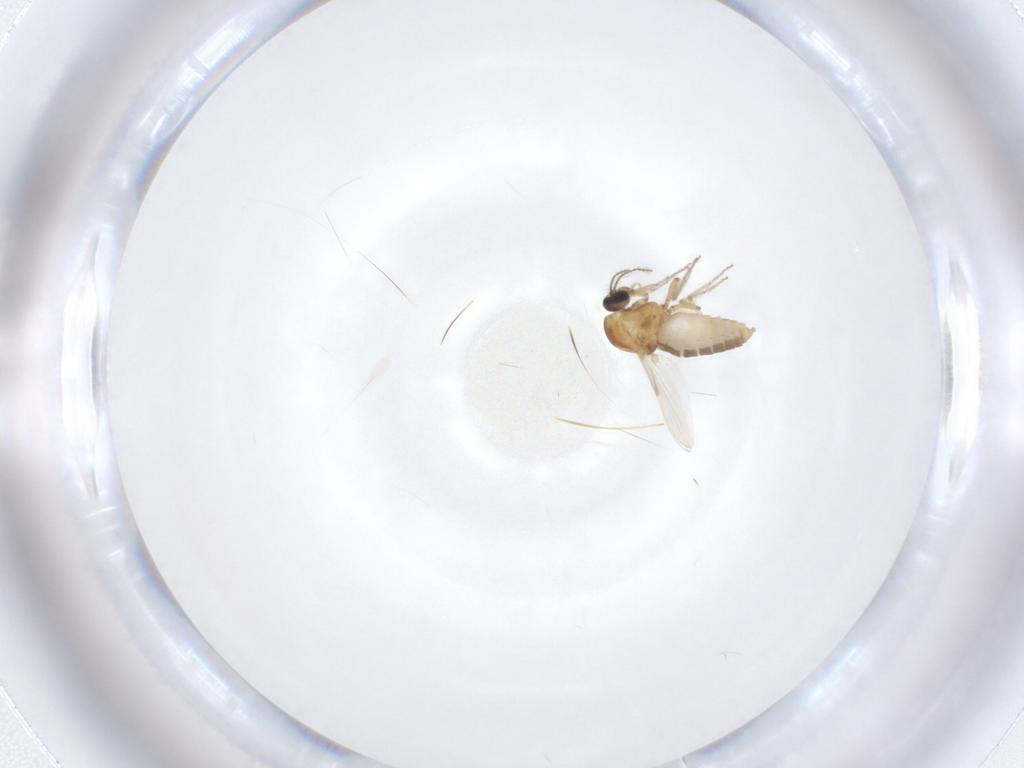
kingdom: Animalia
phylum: Arthropoda
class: Insecta
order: Diptera
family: Ceratopogonidae
